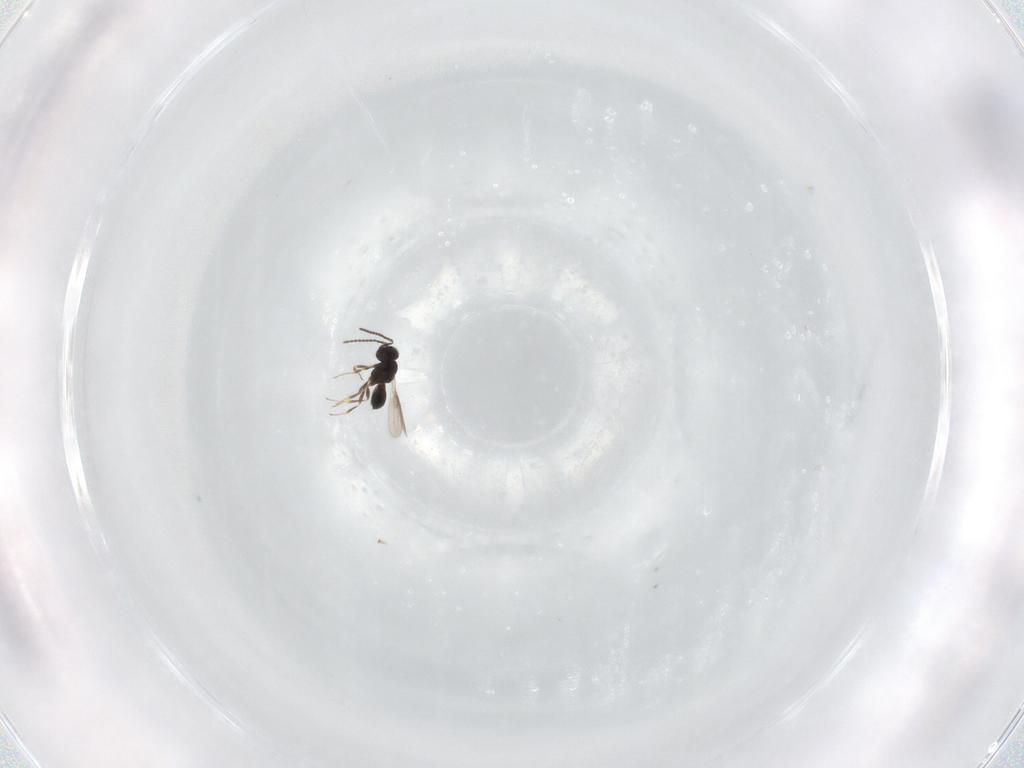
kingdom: Animalia
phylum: Arthropoda
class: Insecta
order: Hymenoptera
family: Scelionidae
